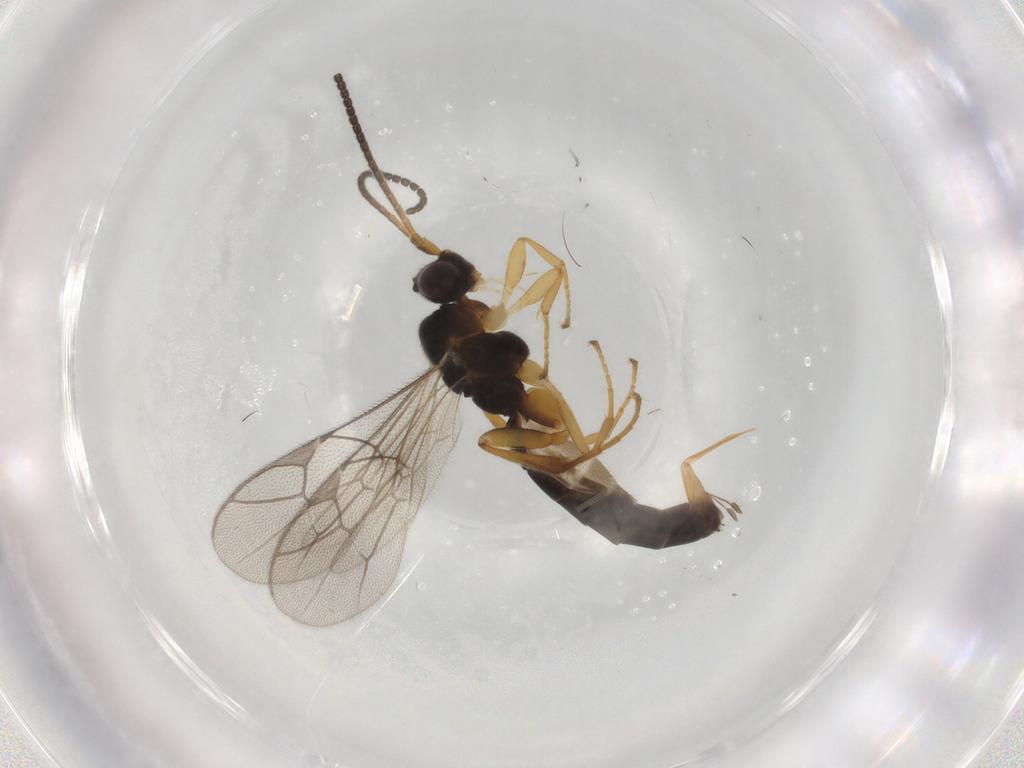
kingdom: Animalia
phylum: Arthropoda
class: Insecta
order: Hymenoptera
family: Ichneumonidae
